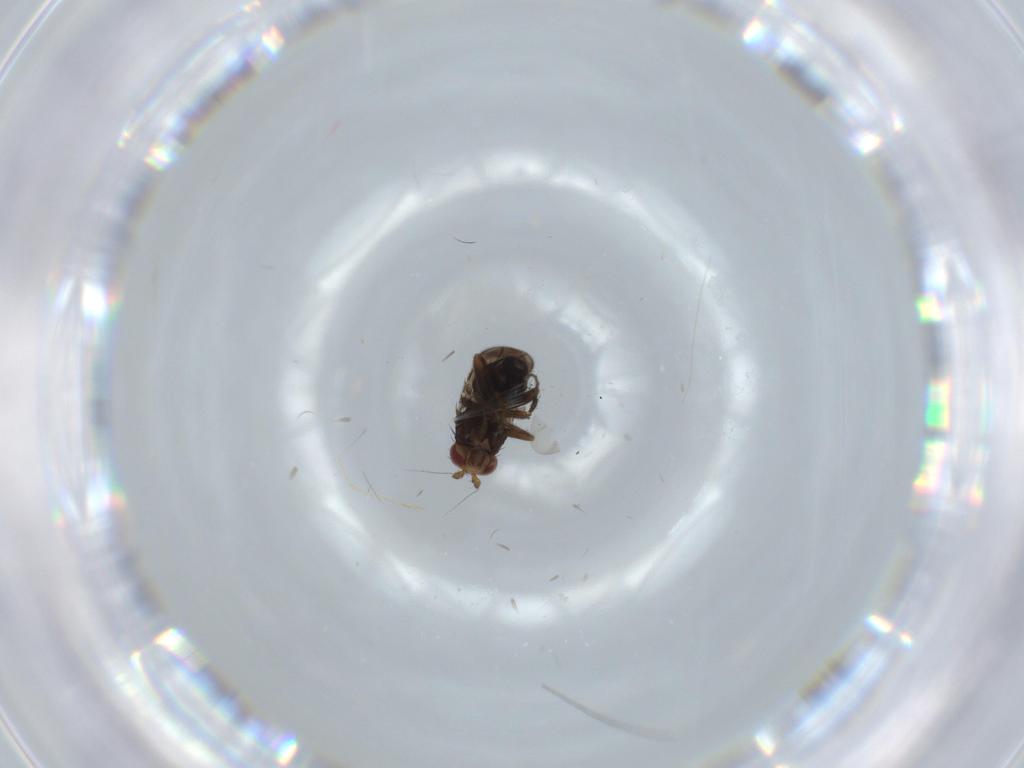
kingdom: Animalia
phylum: Arthropoda
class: Insecta
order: Diptera
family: Sphaeroceridae
